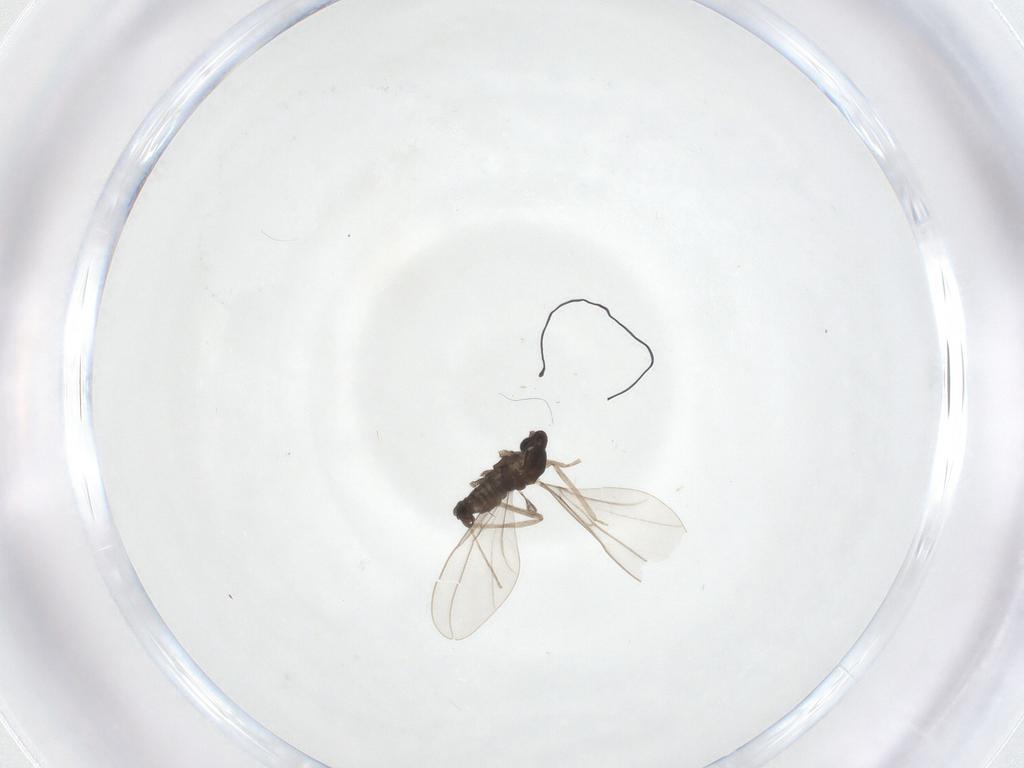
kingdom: Animalia
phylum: Arthropoda
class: Insecta
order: Diptera
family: Cecidomyiidae
